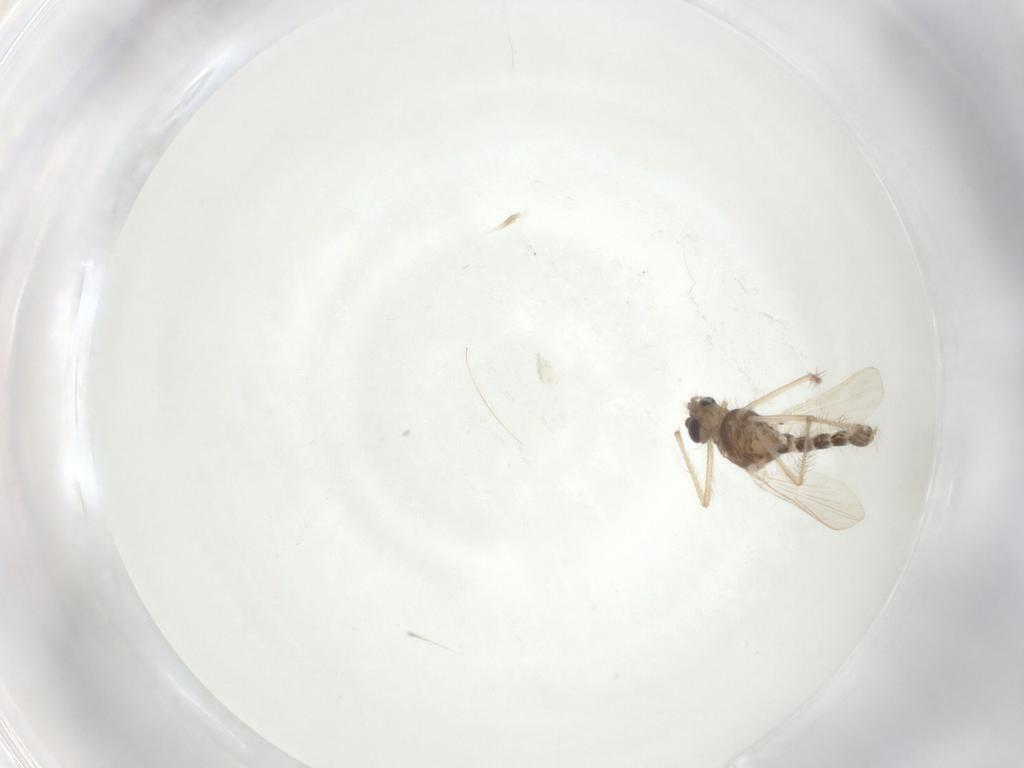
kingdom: Animalia
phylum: Arthropoda
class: Insecta
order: Diptera
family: Chironomidae
